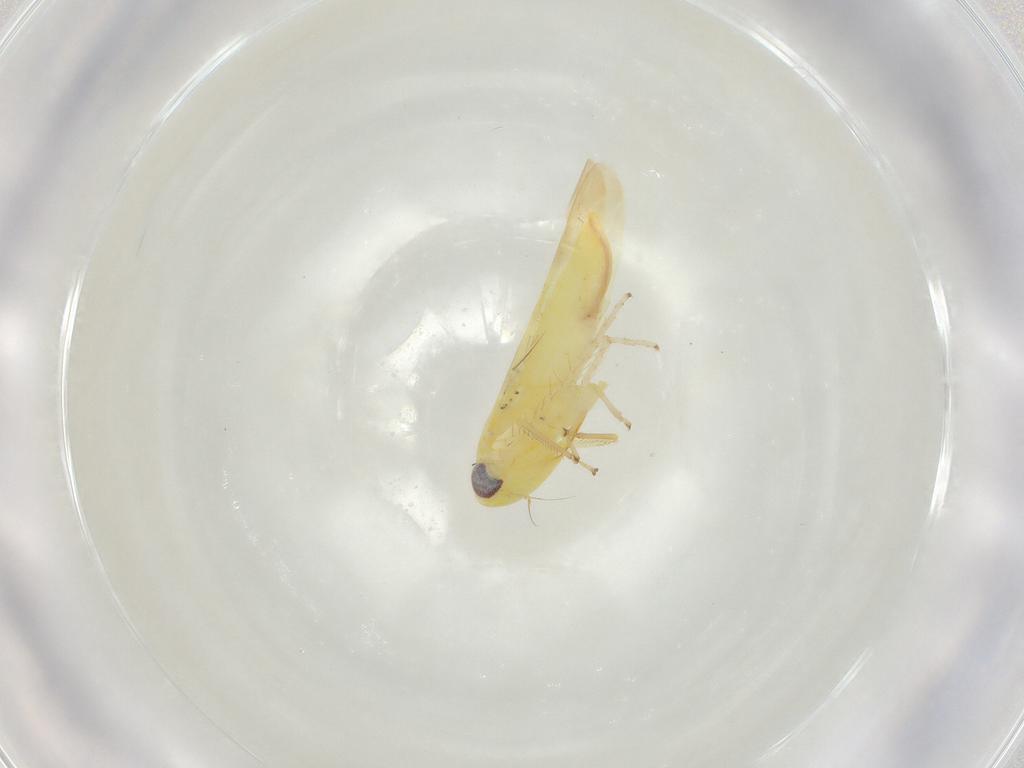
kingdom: Animalia
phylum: Arthropoda
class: Insecta
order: Hemiptera
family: Cicadellidae
